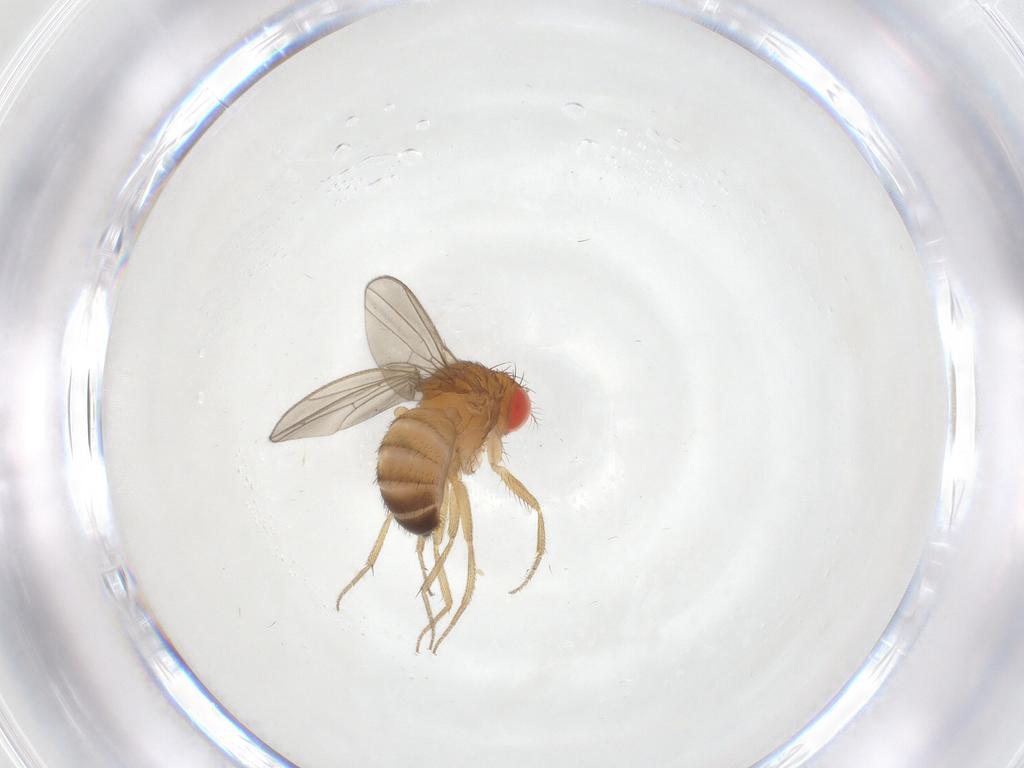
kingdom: Animalia
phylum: Arthropoda
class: Insecta
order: Diptera
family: Drosophilidae
